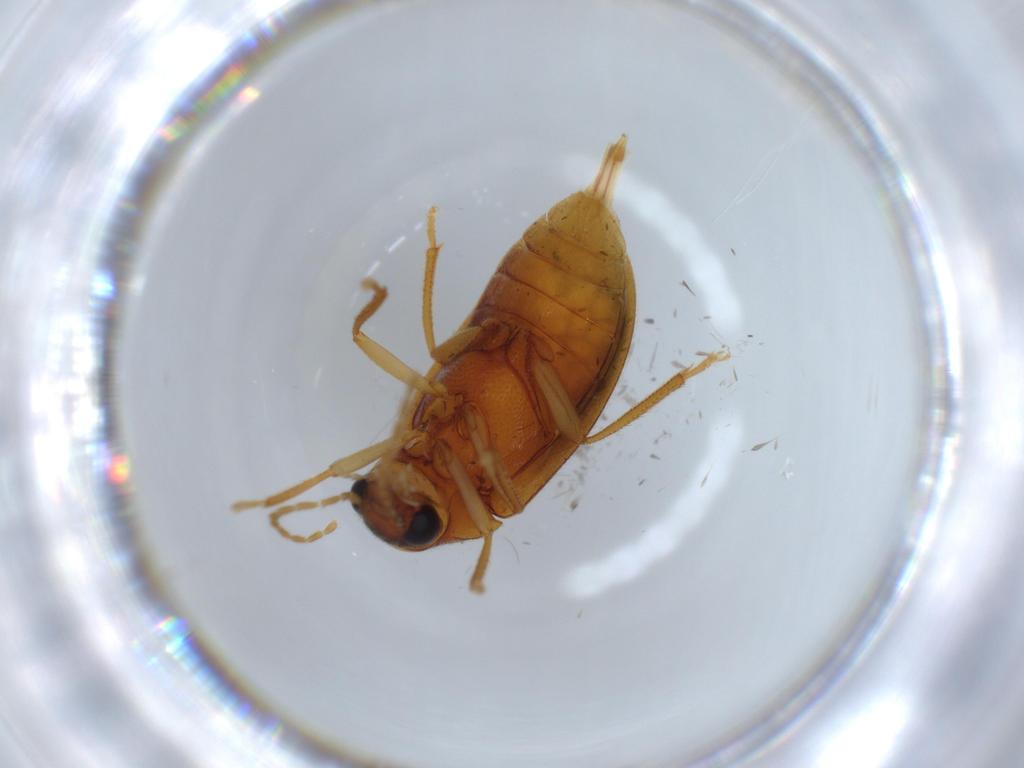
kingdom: Animalia
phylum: Arthropoda
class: Insecta
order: Coleoptera
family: Ptilodactylidae
